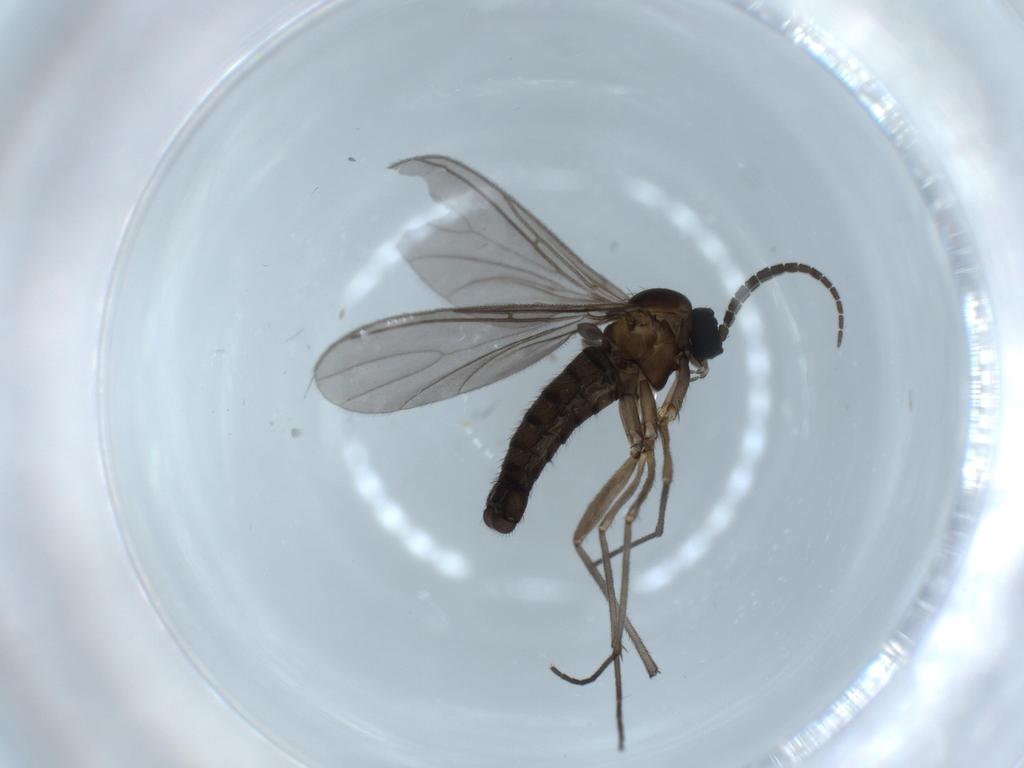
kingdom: Animalia
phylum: Arthropoda
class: Insecta
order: Diptera
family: Sciaridae
